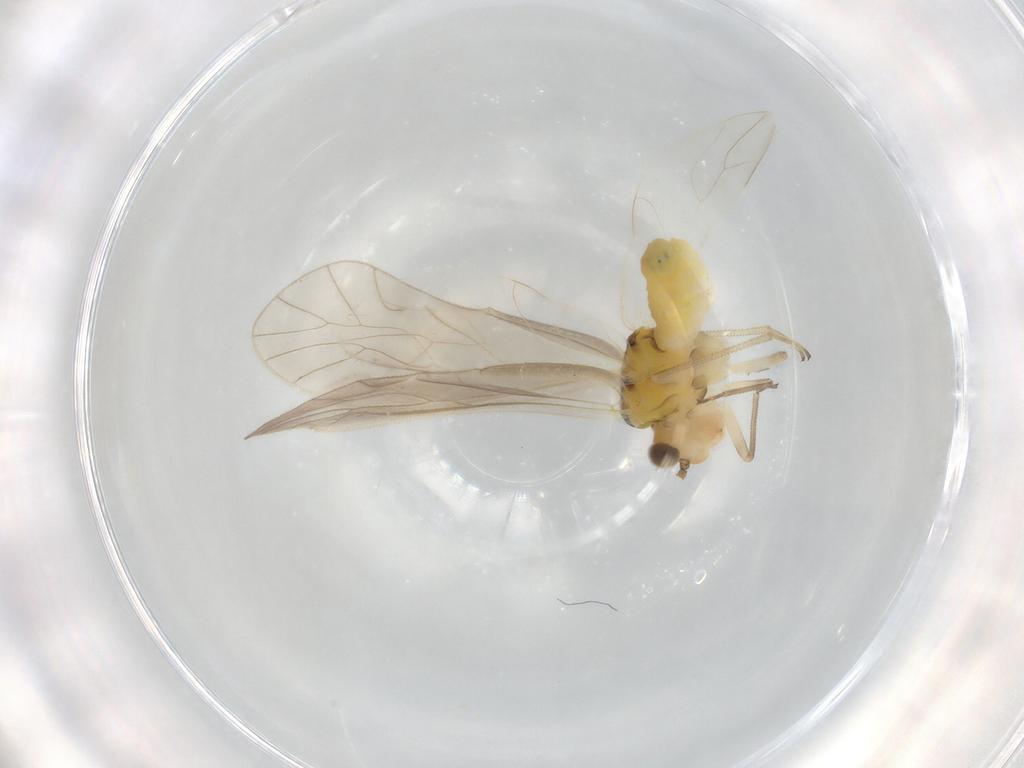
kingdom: Animalia
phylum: Arthropoda
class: Insecta
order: Psocodea
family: Caeciliusidae
